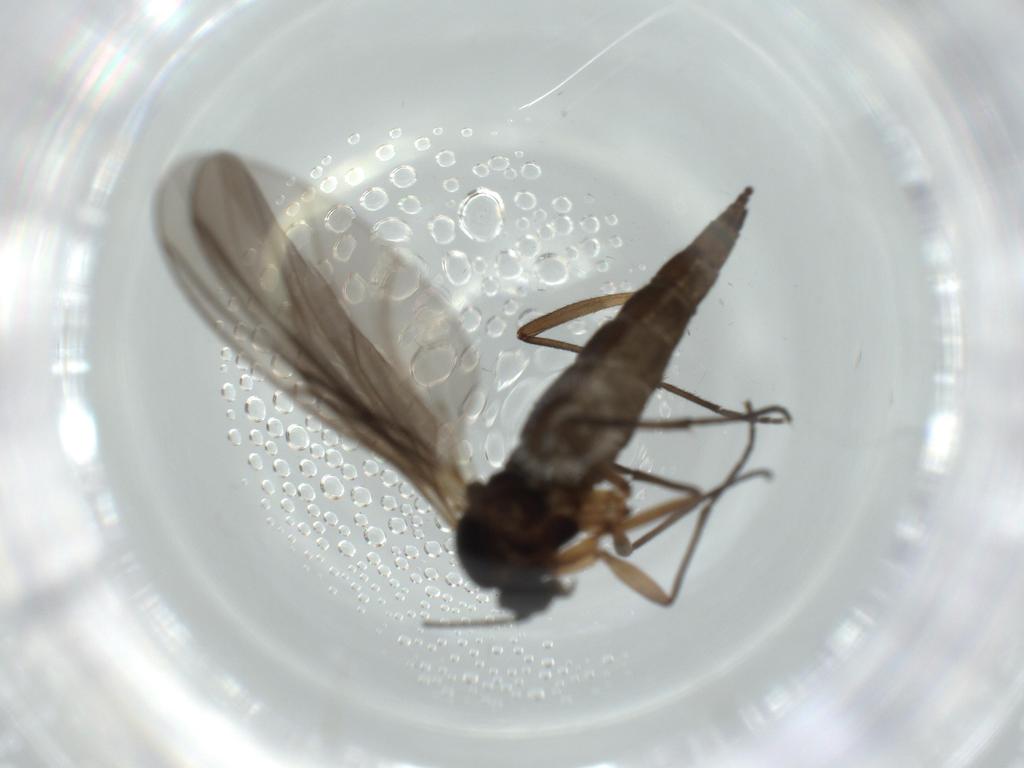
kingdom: Animalia
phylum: Arthropoda
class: Insecta
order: Diptera
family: Sciaridae
